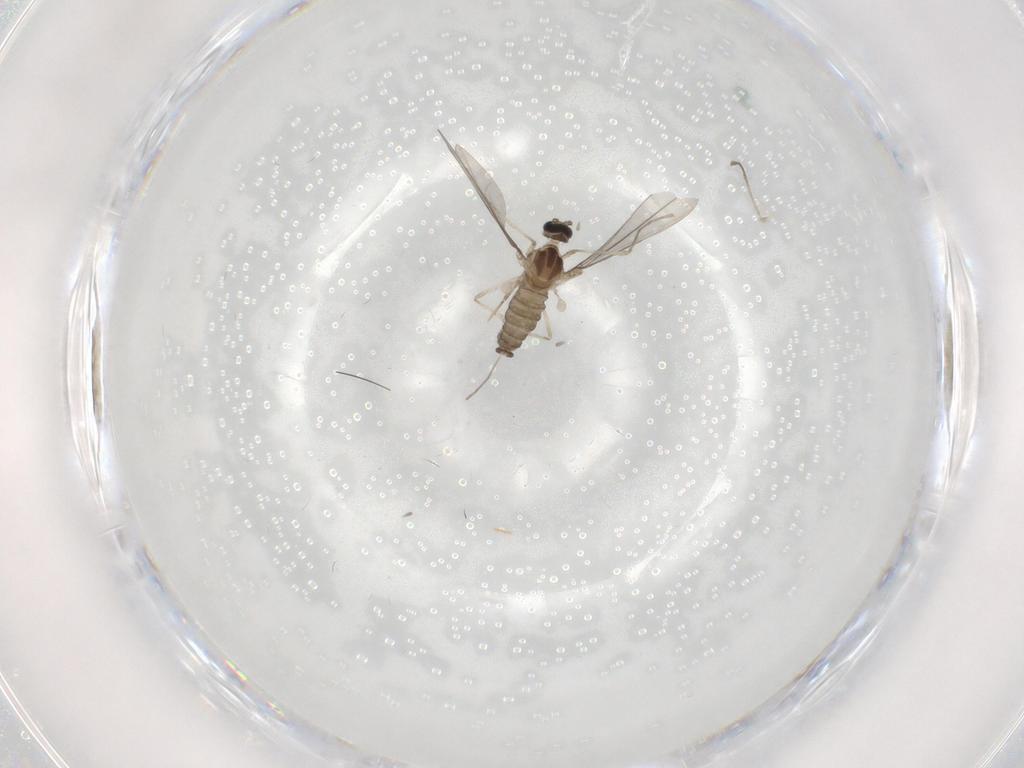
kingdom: Animalia
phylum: Arthropoda
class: Insecta
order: Diptera
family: Cecidomyiidae
